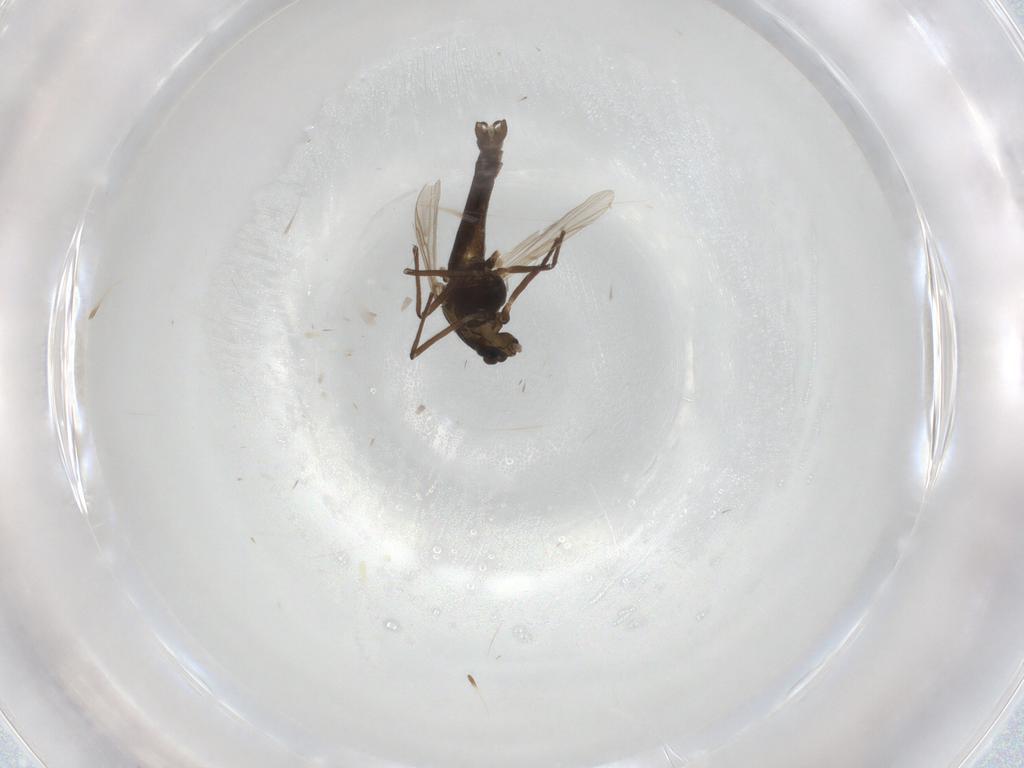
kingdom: Animalia
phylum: Arthropoda
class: Insecta
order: Diptera
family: Chironomidae
